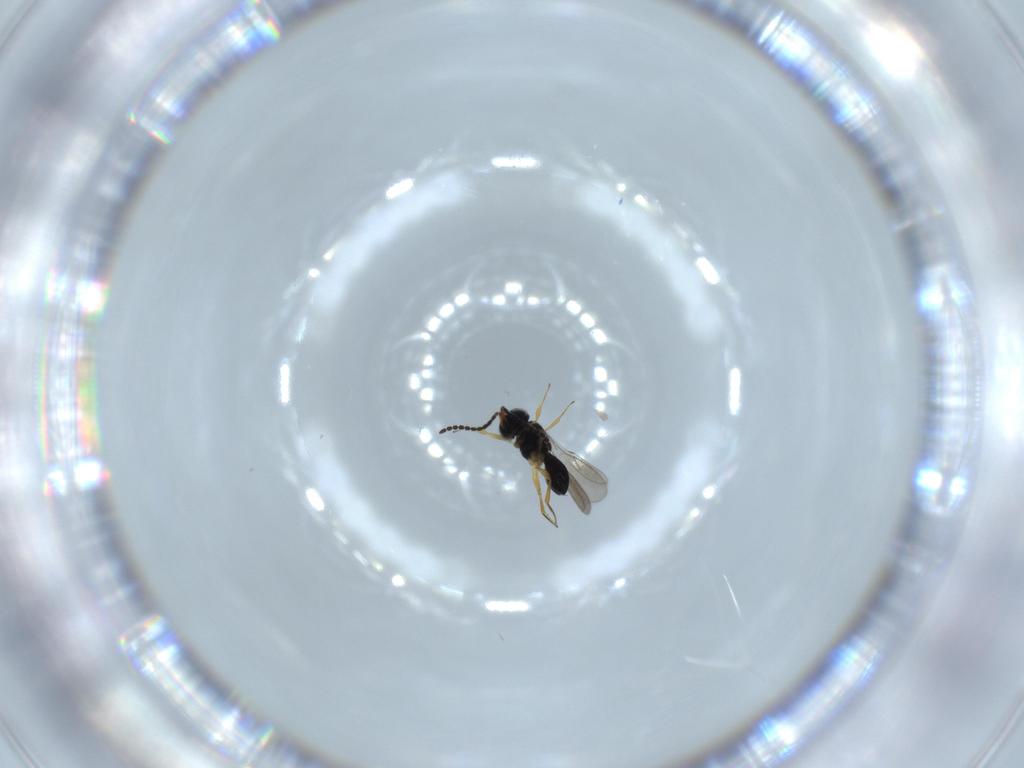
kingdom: Animalia
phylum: Arthropoda
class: Insecta
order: Hymenoptera
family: Scelionidae
